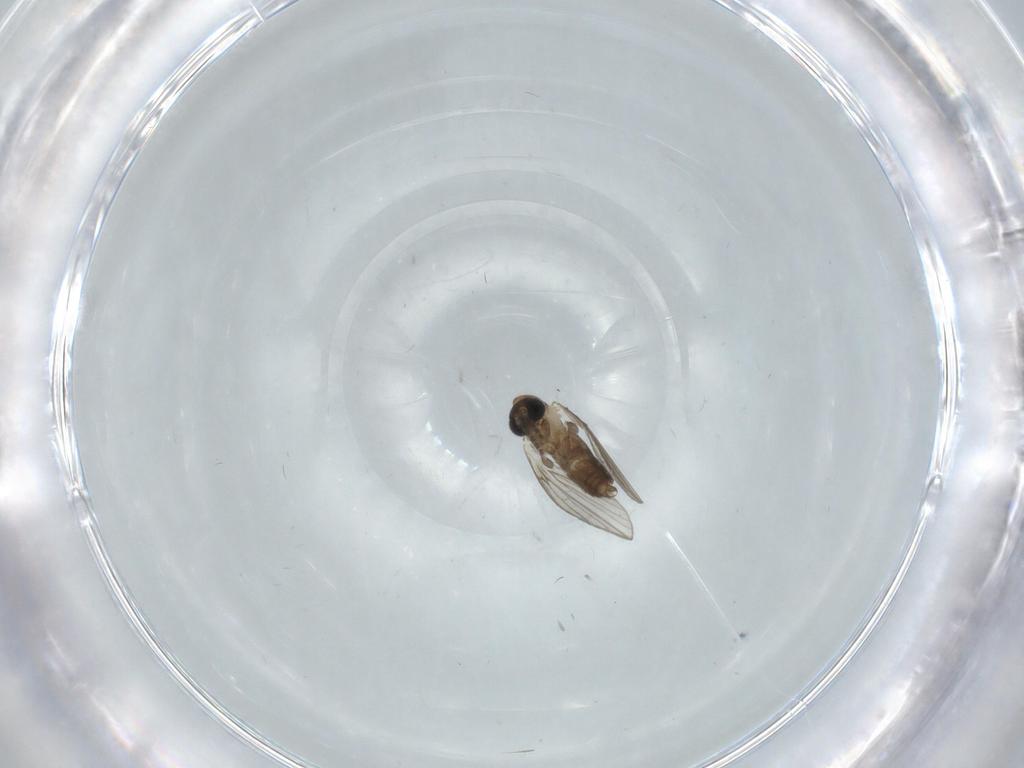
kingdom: Animalia
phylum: Arthropoda
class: Insecta
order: Diptera
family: Psychodidae
